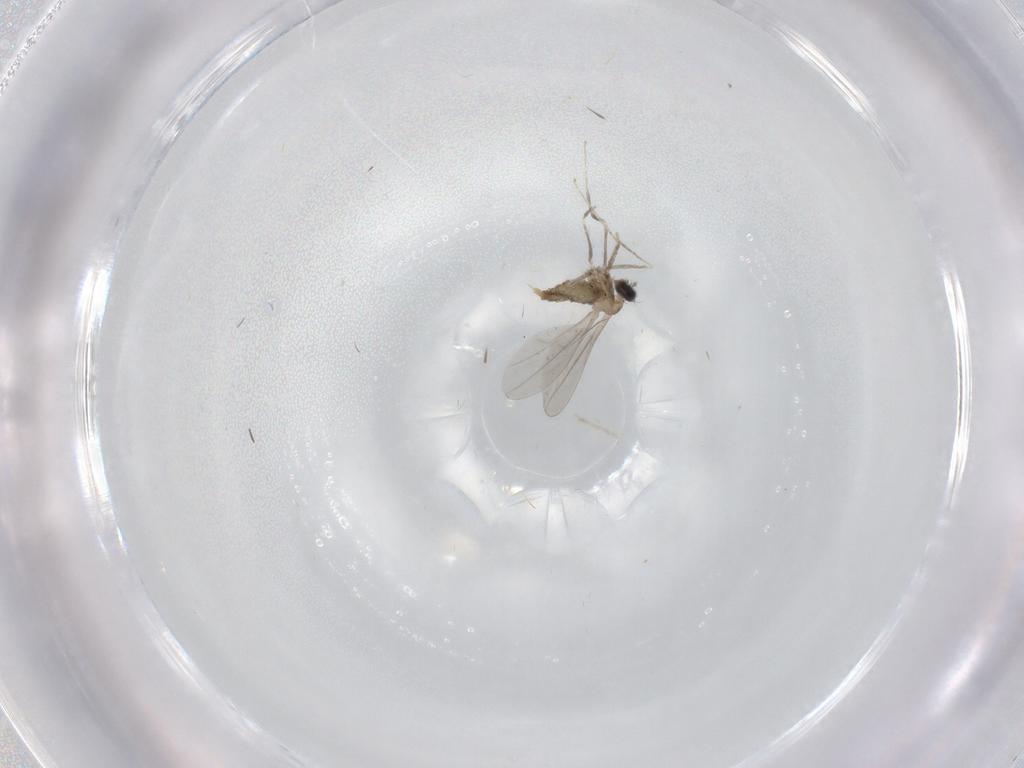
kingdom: Animalia
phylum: Arthropoda
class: Insecta
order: Diptera
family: Cecidomyiidae
